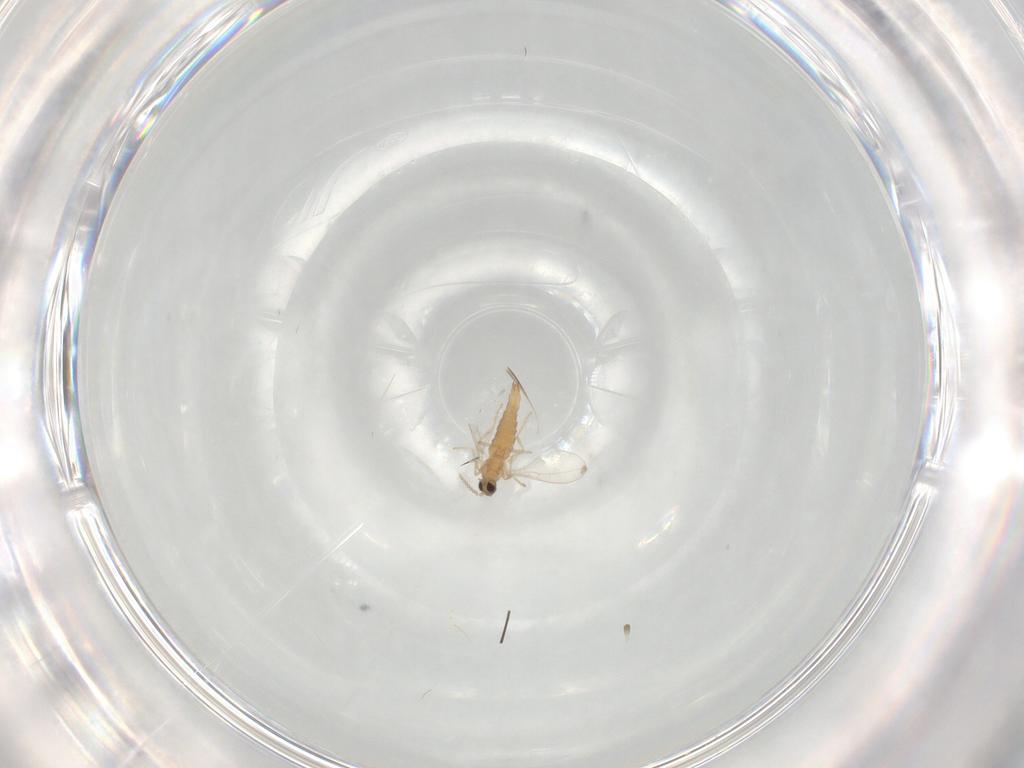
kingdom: Animalia
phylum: Arthropoda
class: Insecta
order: Diptera
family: Cecidomyiidae
